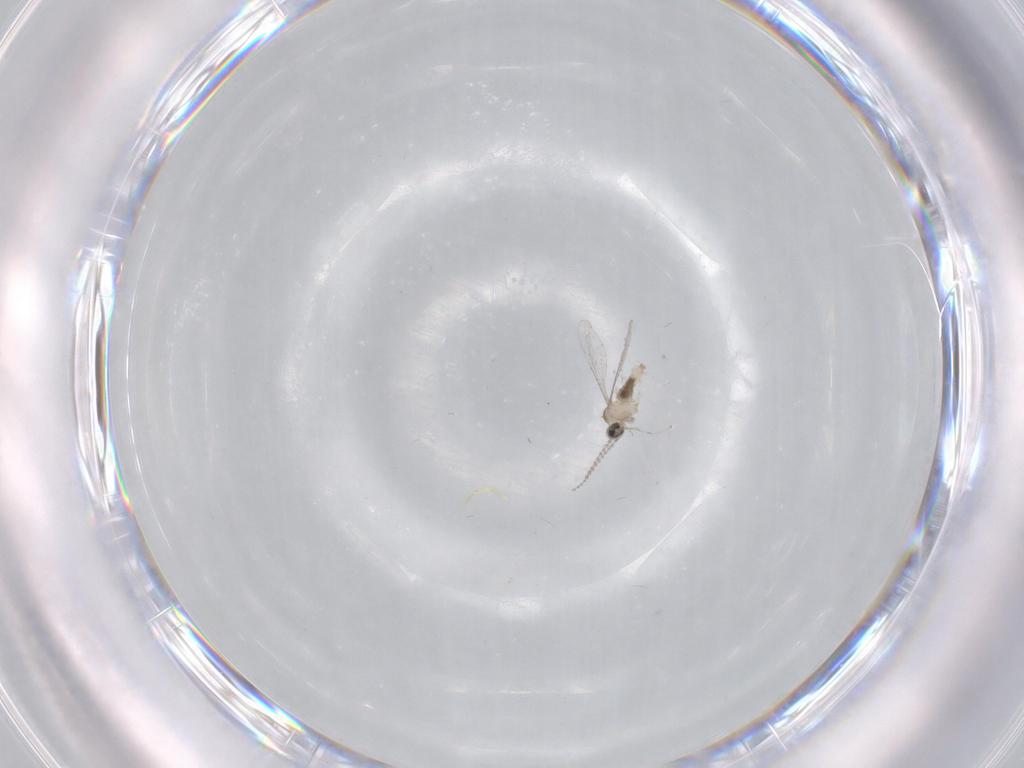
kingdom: Animalia
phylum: Arthropoda
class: Insecta
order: Diptera
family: Cecidomyiidae
